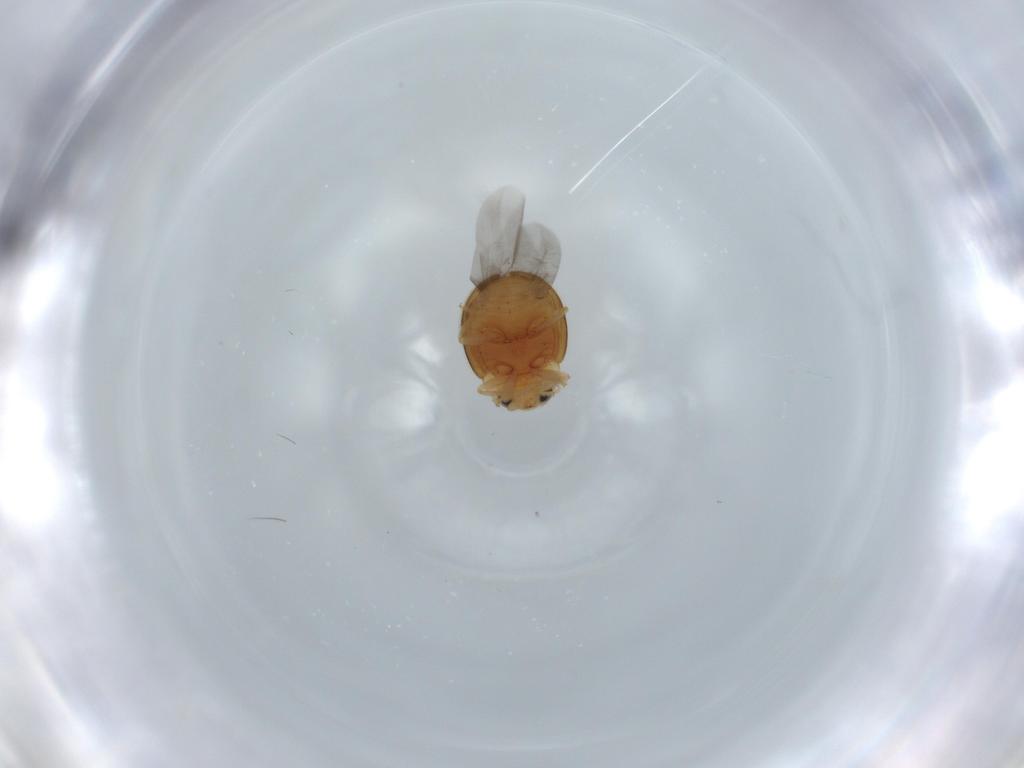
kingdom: Animalia
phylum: Arthropoda
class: Insecta
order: Coleoptera
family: Coccinellidae
